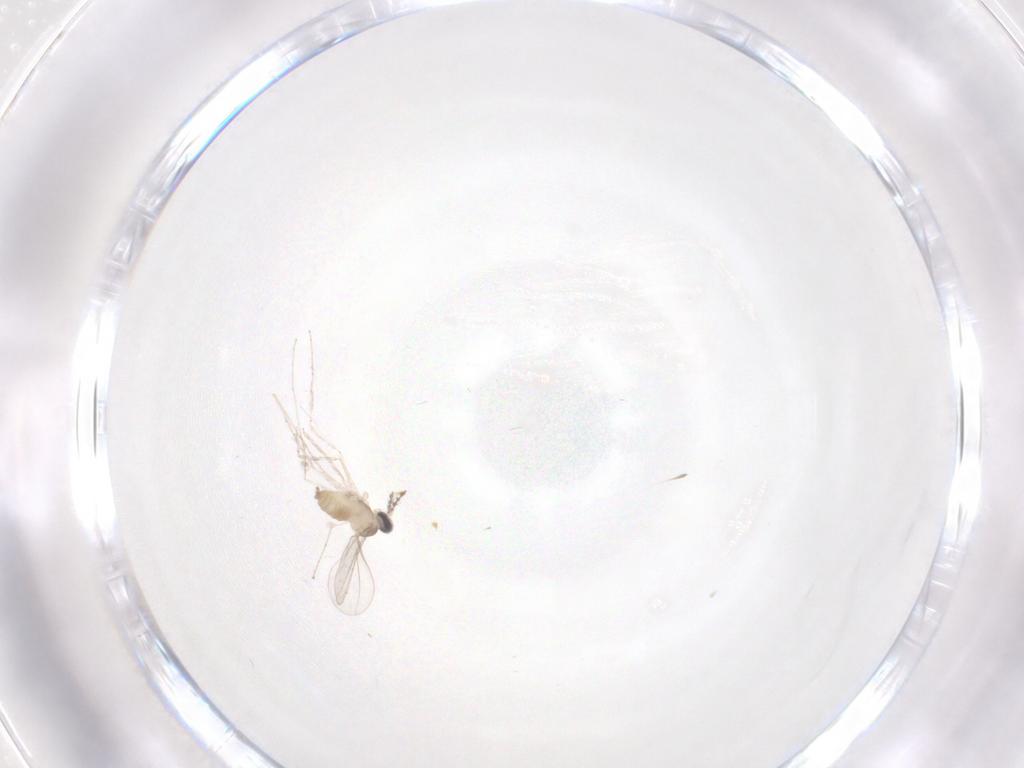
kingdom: Animalia
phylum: Arthropoda
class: Insecta
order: Diptera
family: Cecidomyiidae
